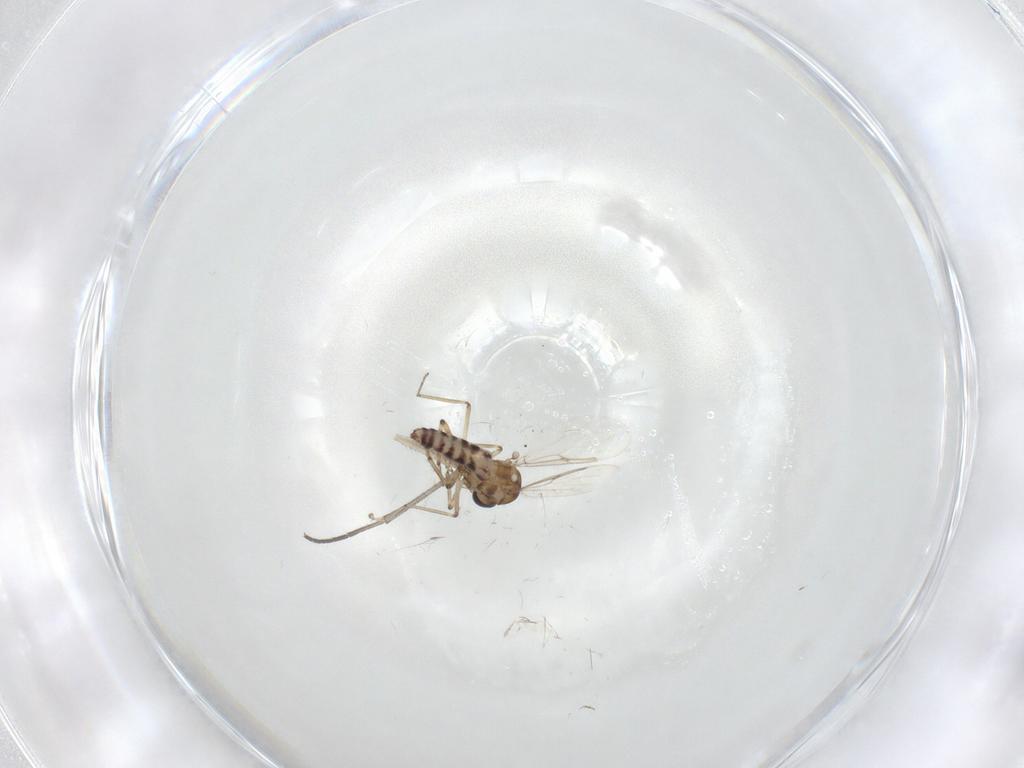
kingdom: Animalia
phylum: Arthropoda
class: Insecta
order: Diptera
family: Ceratopogonidae
